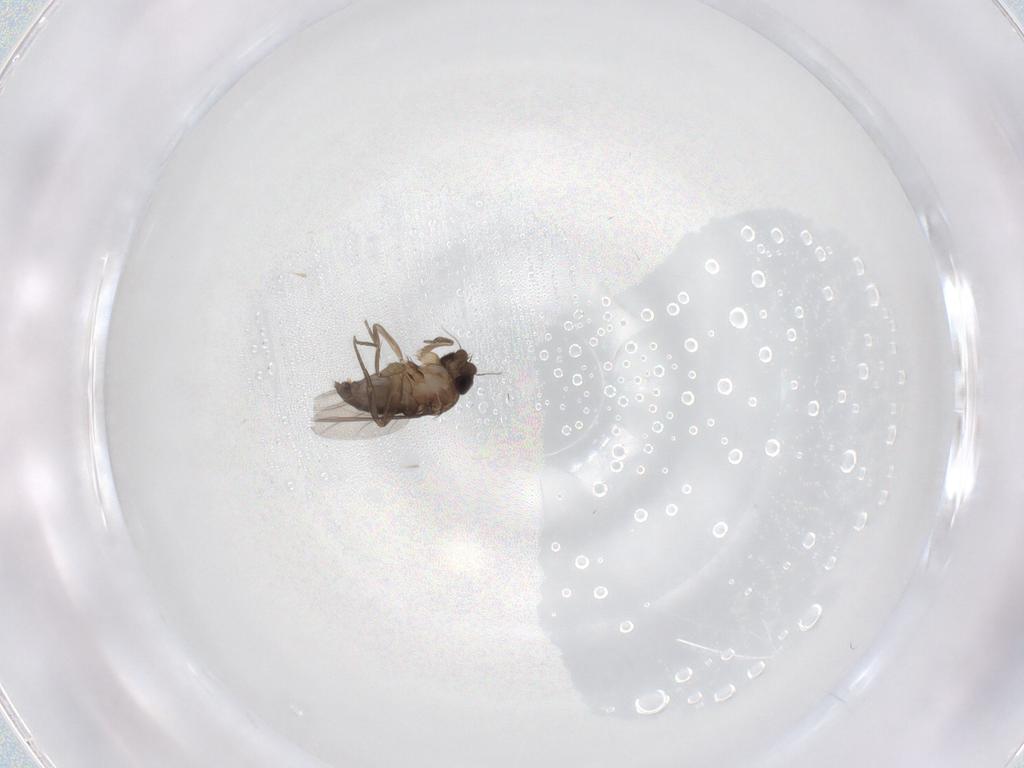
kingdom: Animalia
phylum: Arthropoda
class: Insecta
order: Diptera
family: Phoridae
